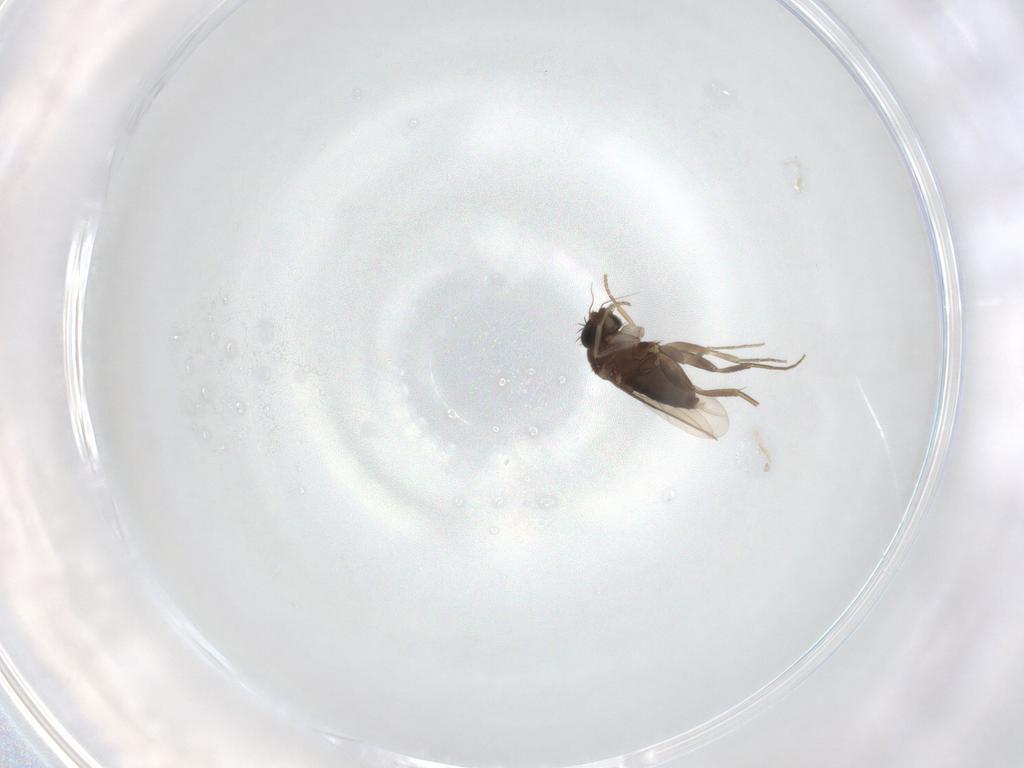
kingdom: Animalia
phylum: Arthropoda
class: Insecta
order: Diptera
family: Phoridae
